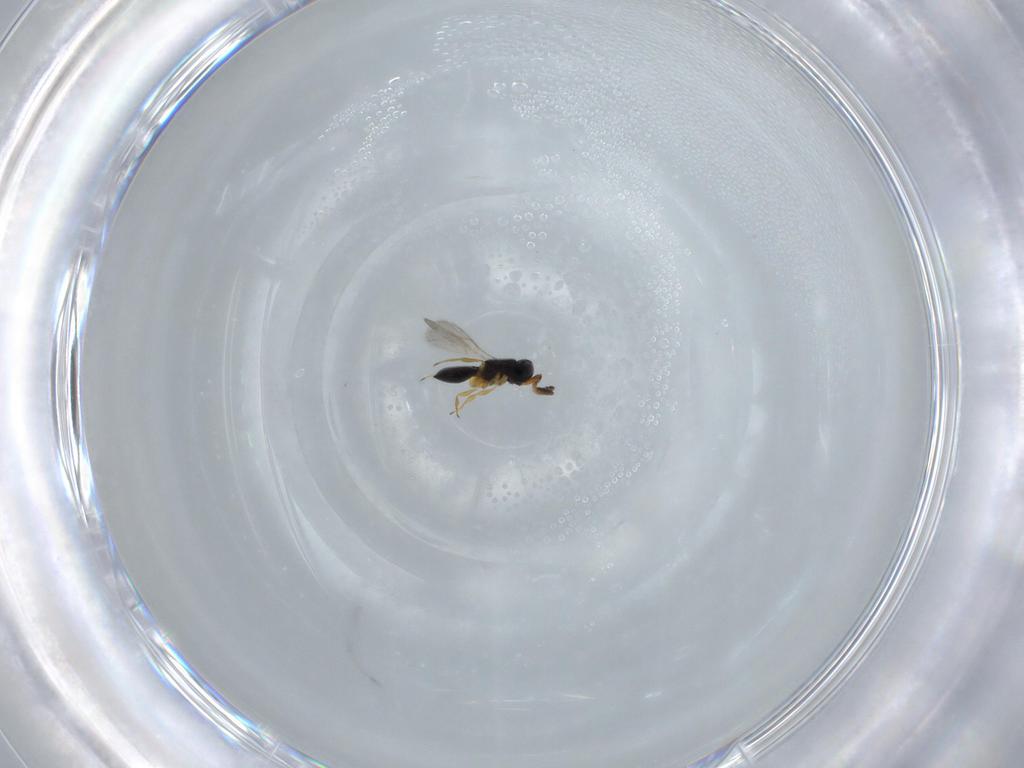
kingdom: Animalia
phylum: Arthropoda
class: Insecta
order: Hymenoptera
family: Ceraphronidae
